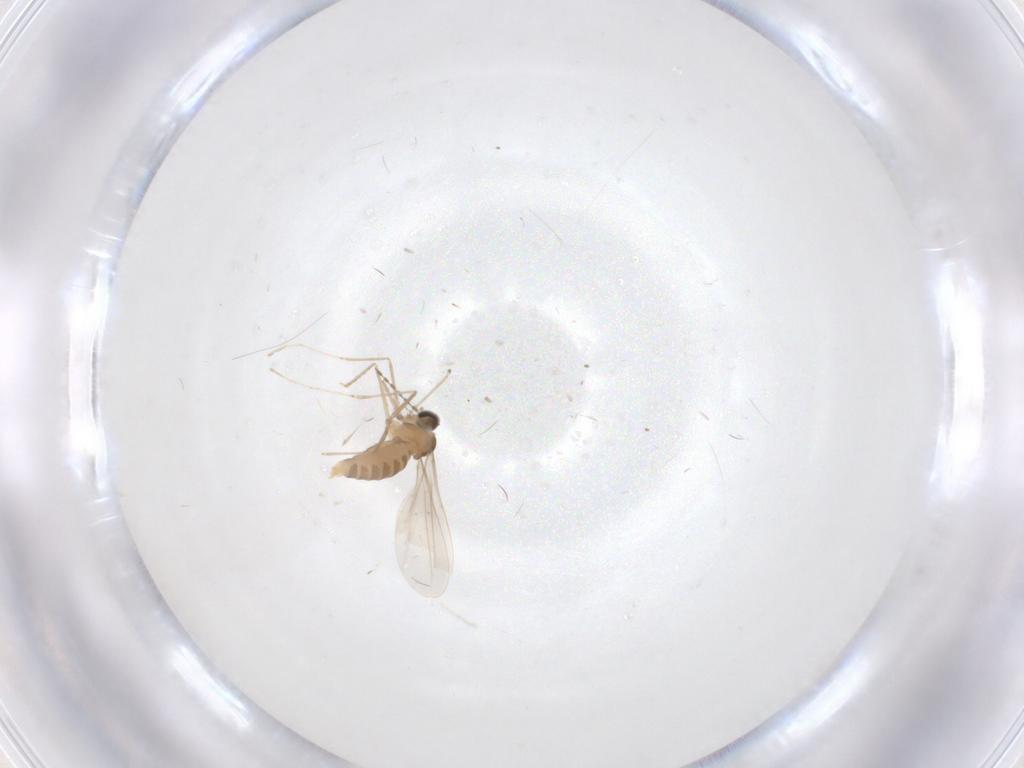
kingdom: Animalia
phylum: Arthropoda
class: Insecta
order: Diptera
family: Cecidomyiidae
